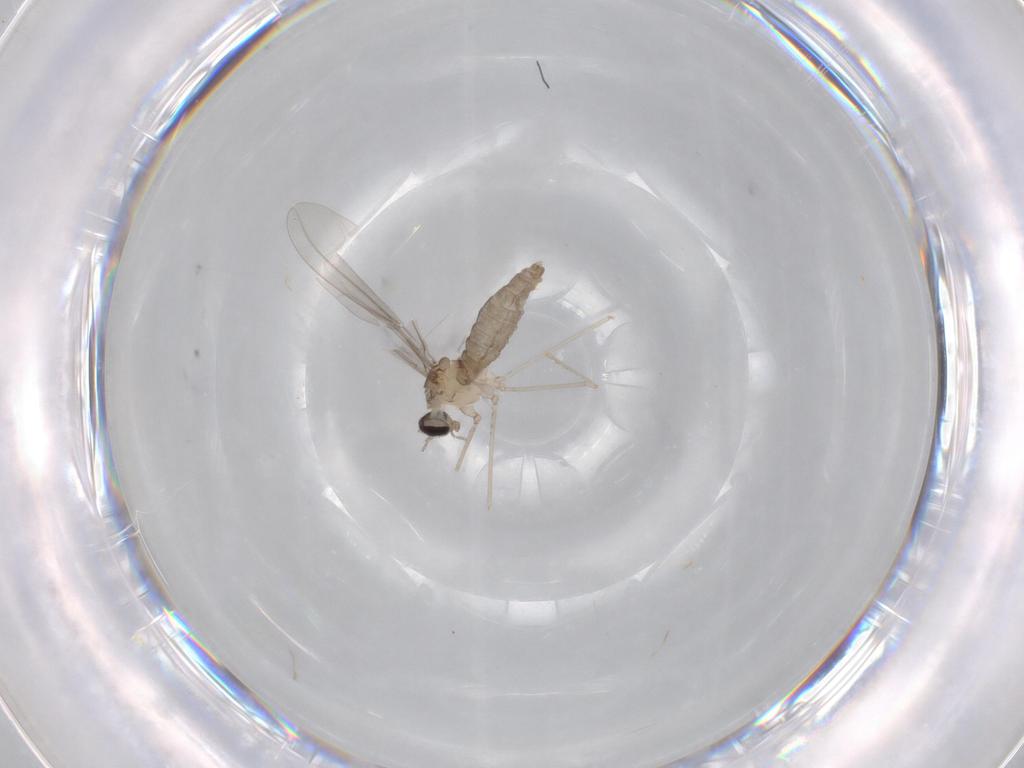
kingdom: Animalia
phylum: Arthropoda
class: Insecta
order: Diptera
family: Cecidomyiidae
